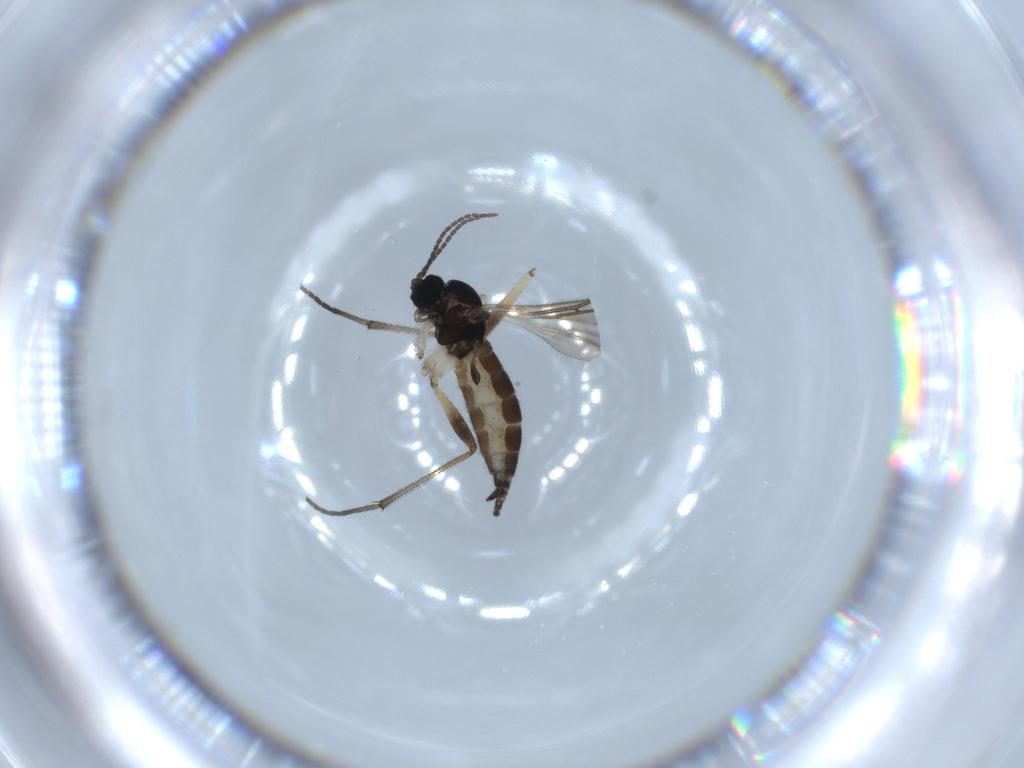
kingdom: Animalia
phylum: Arthropoda
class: Insecta
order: Diptera
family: Sciaridae
